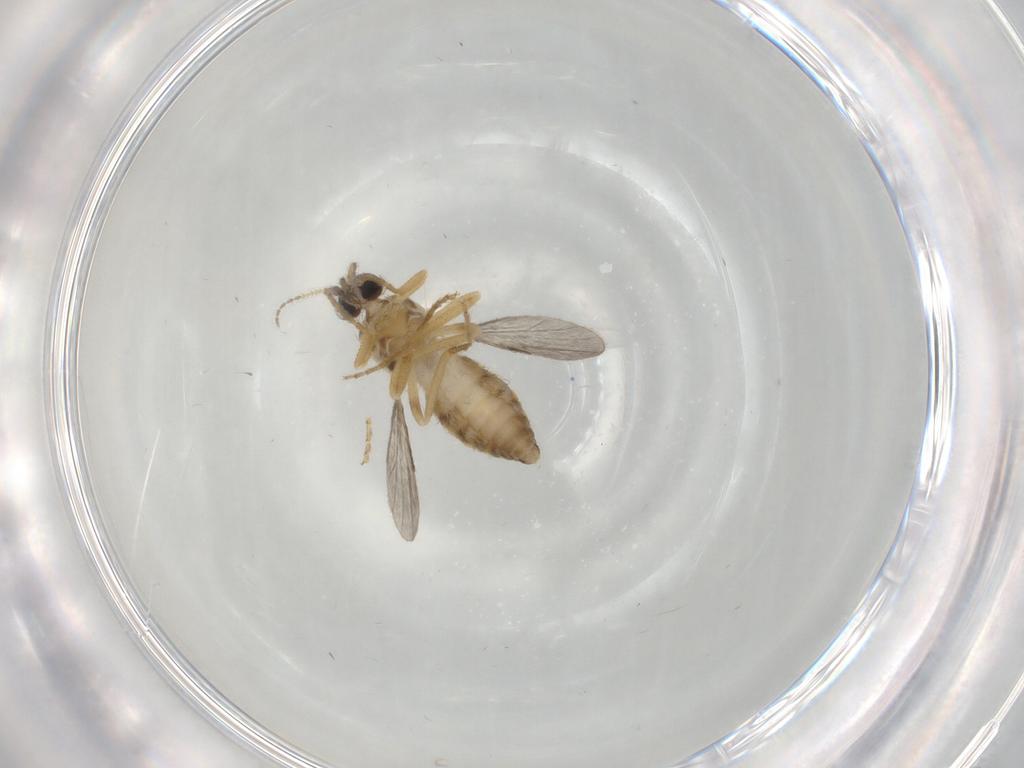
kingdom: Animalia
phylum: Arthropoda
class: Insecta
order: Diptera
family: Ceratopogonidae
